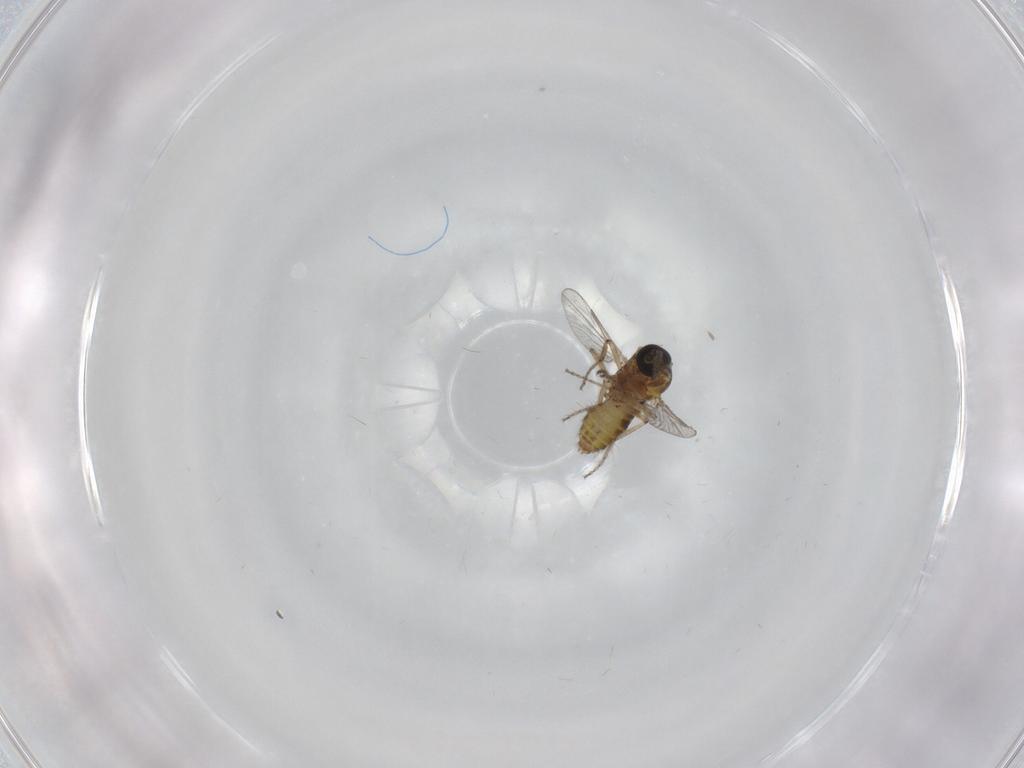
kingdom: Animalia
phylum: Arthropoda
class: Insecta
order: Diptera
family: Ceratopogonidae
